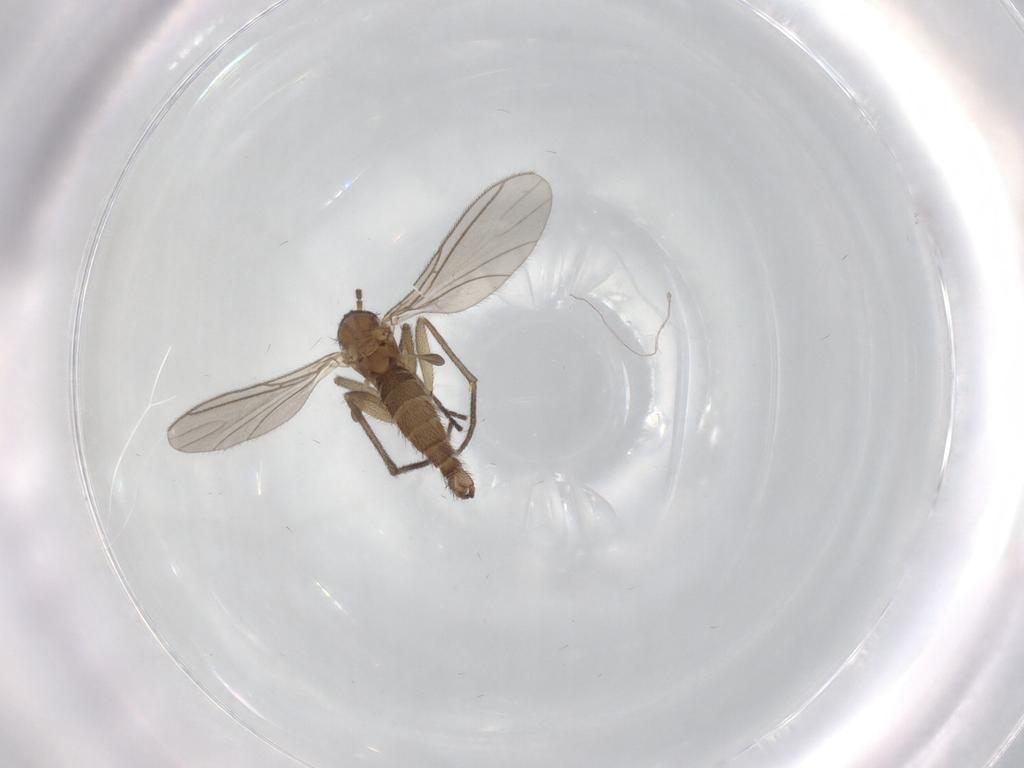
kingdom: Animalia
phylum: Arthropoda
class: Insecta
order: Diptera
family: Sciaridae
